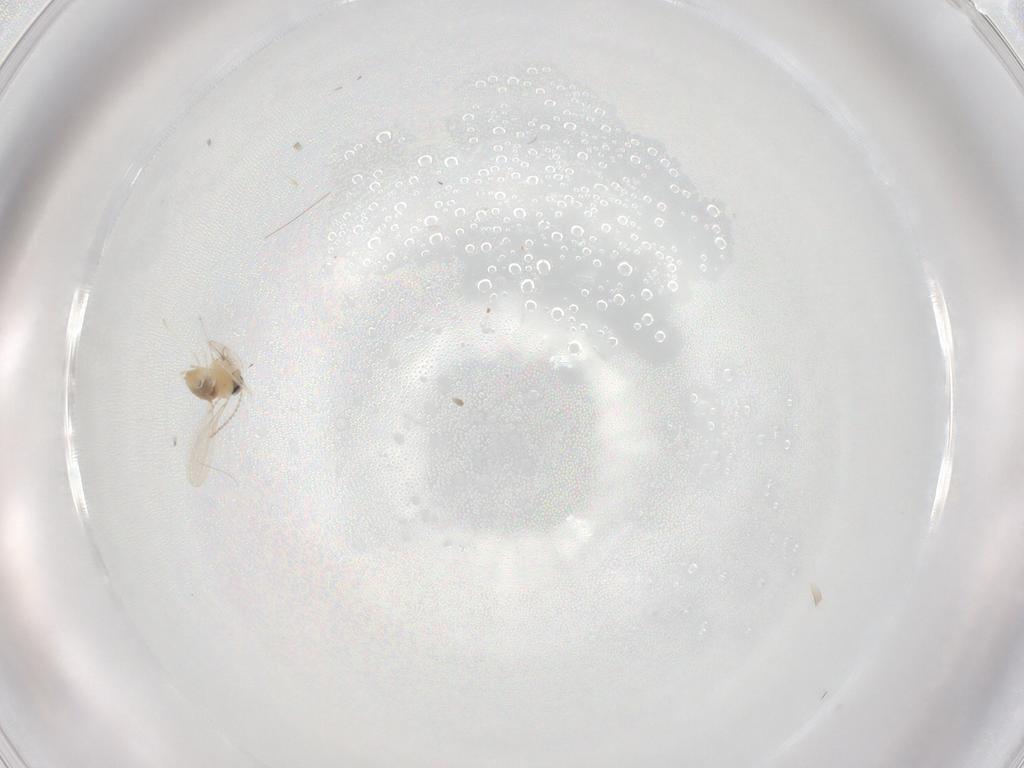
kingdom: Animalia
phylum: Arthropoda
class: Insecta
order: Diptera
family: Cecidomyiidae
